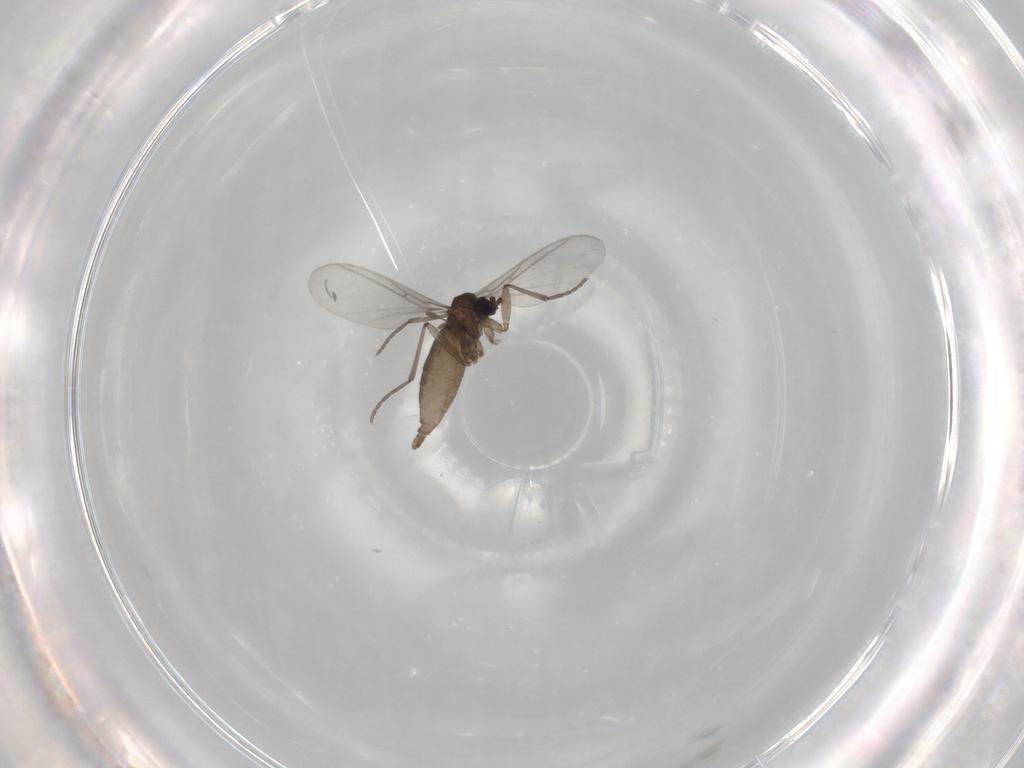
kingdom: Animalia
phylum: Arthropoda
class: Insecta
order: Diptera
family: Sciaridae
